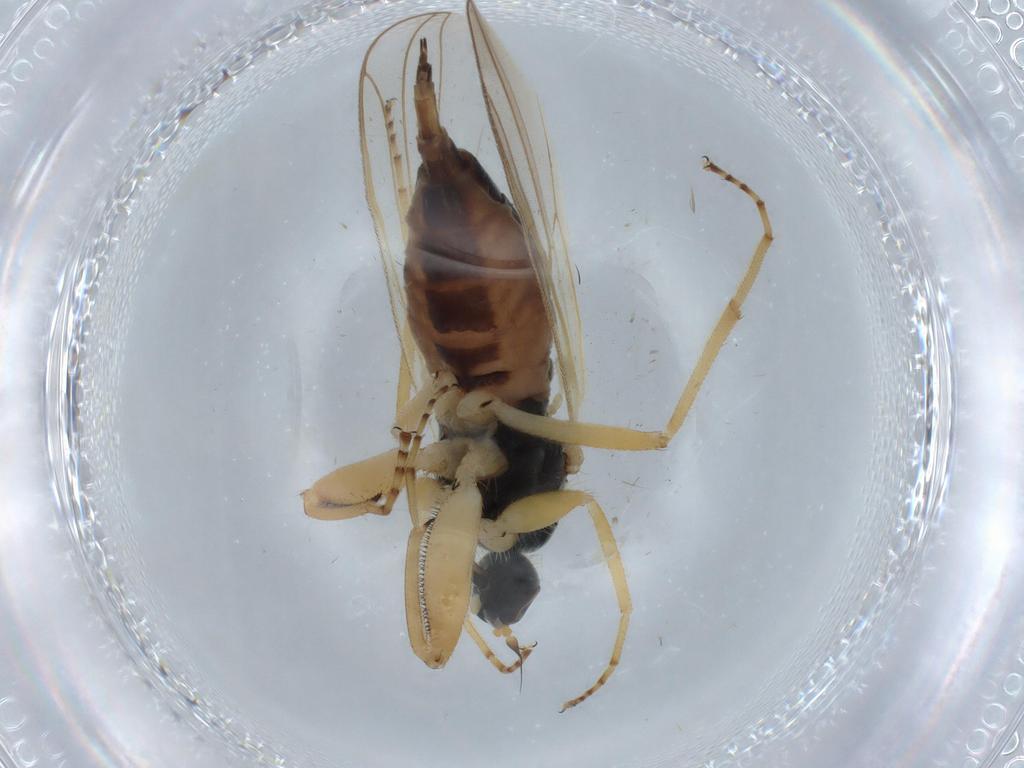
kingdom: Animalia
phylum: Arthropoda
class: Insecta
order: Diptera
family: Hybotidae
